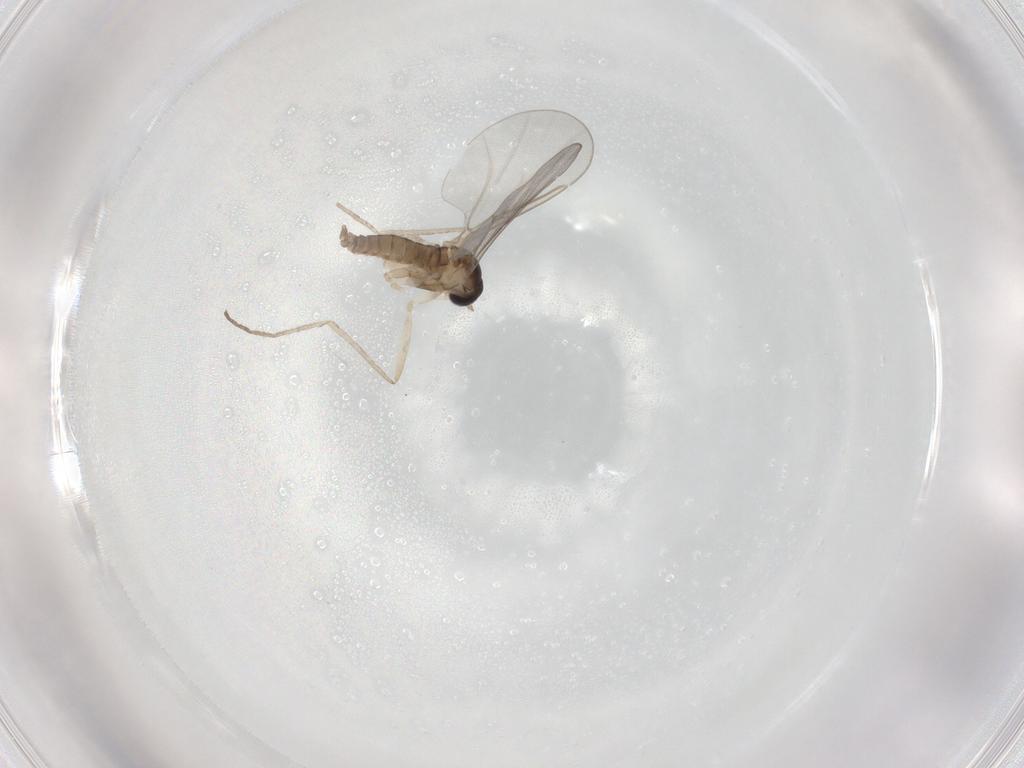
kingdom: Animalia
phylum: Arthropoda
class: Insecta
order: Diptera
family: Cecidomyiidae
